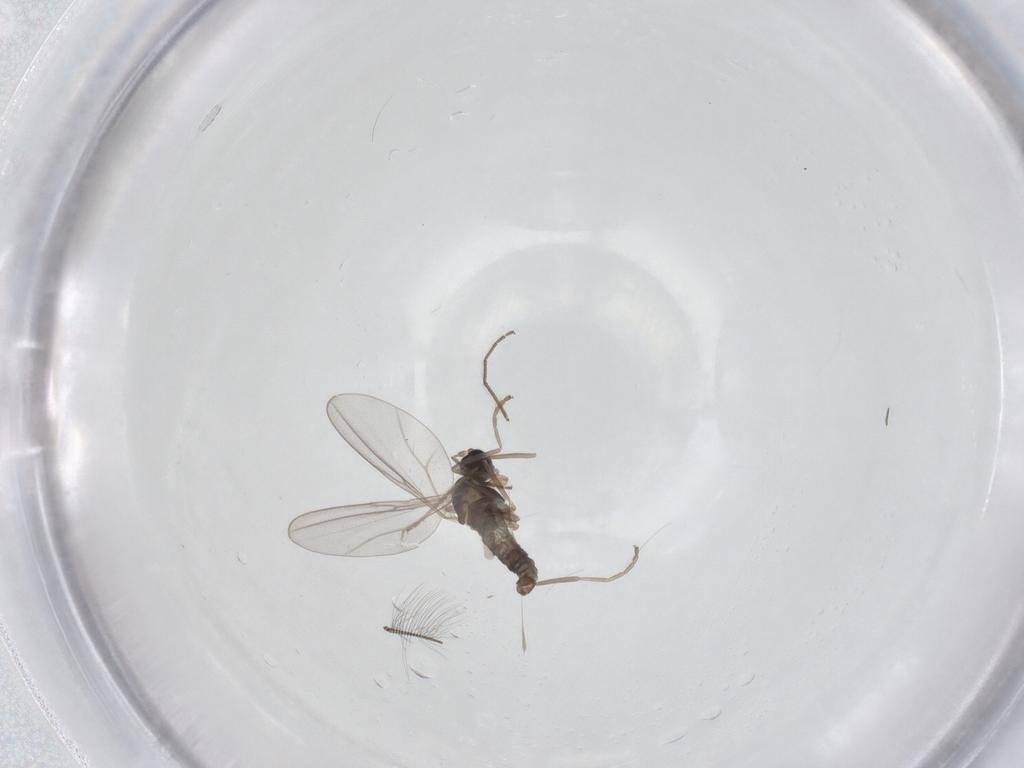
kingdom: Animalia
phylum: Arthropoda
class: Insecta
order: Diptera
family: Cecidomyiidae
